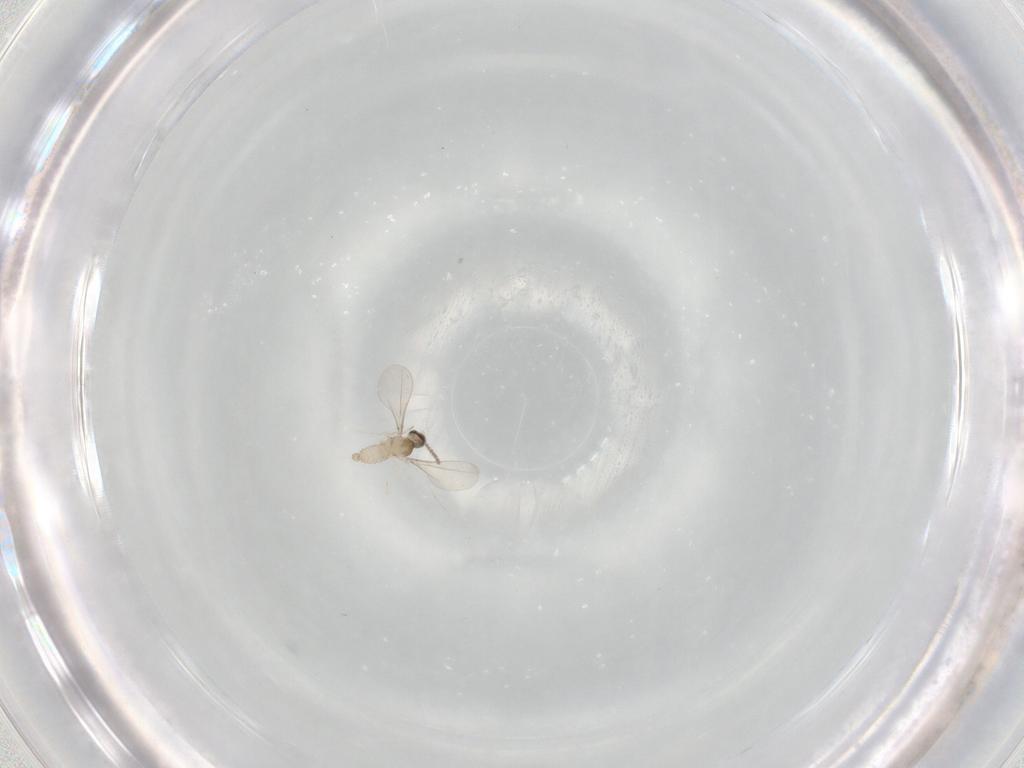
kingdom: Animalia
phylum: Arthropoda
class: Insecta
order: Diptera
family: Cecidomyiidae
